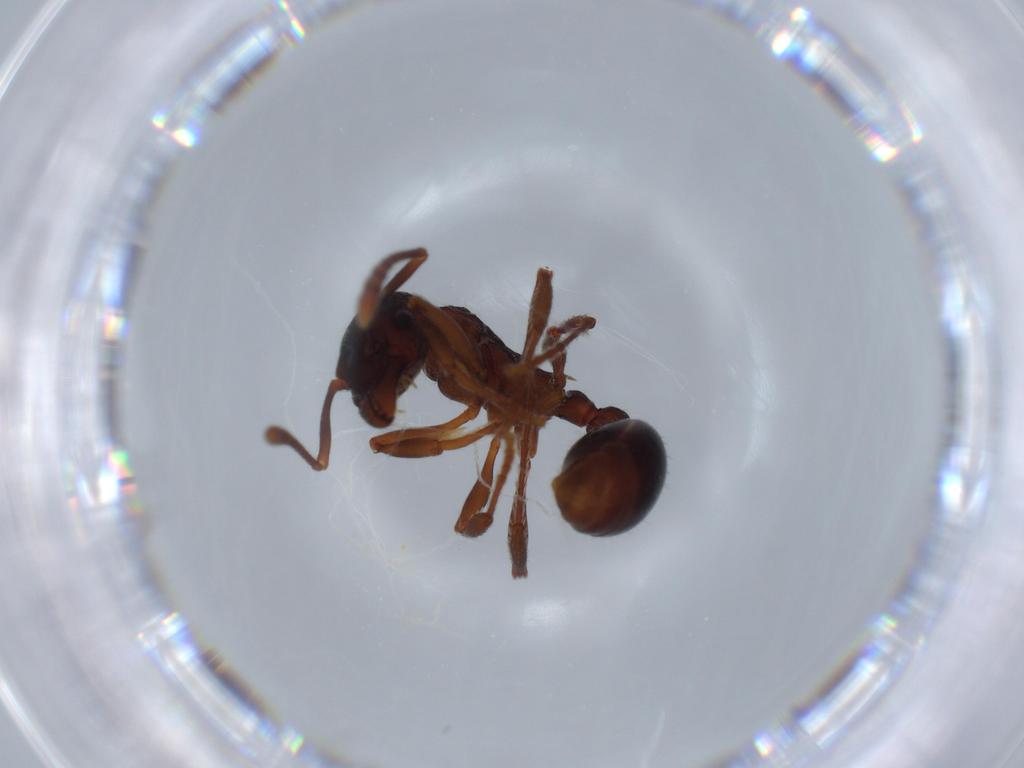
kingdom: Animalia
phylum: Arthropoda
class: Insecta
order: Hymenoptera
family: Formicidae
